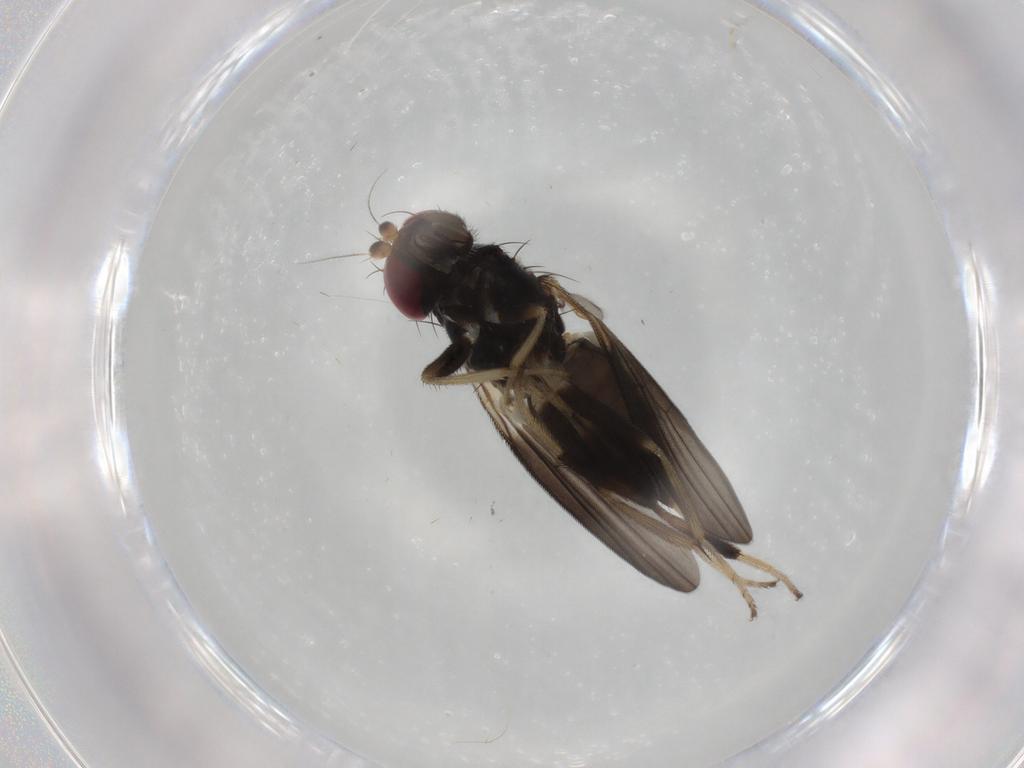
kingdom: Animalia
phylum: Arthropoda
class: Insecta
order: Diptera
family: Clusiidae
